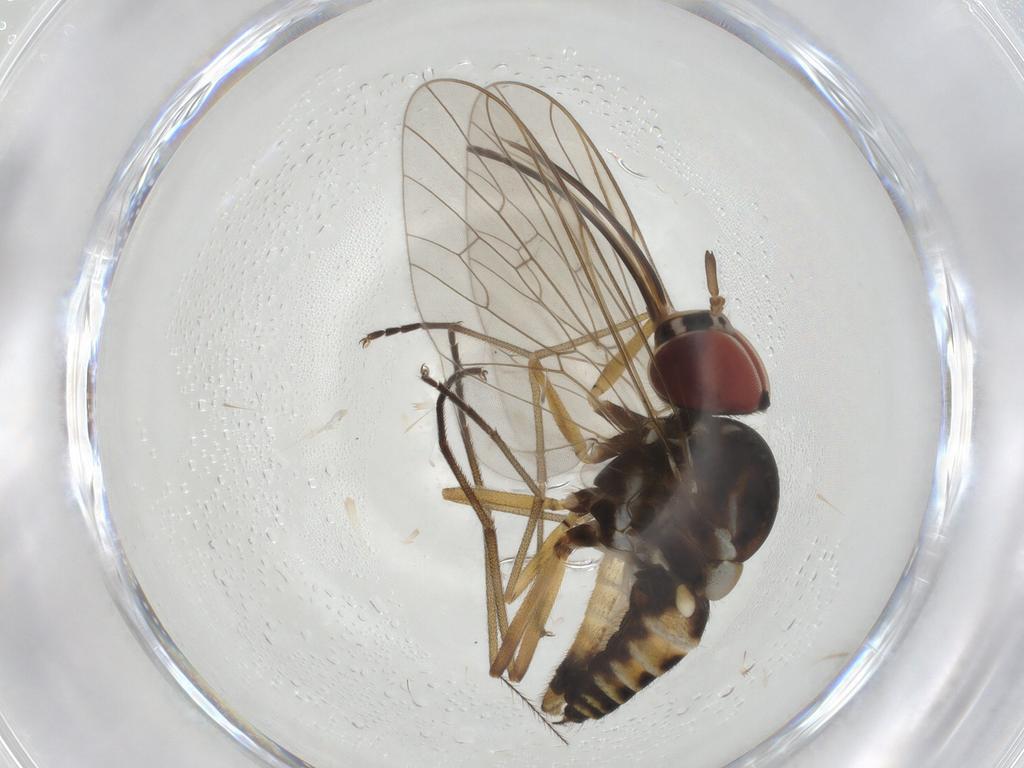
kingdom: Animalia
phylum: Arthropoda
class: Insecta
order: Diptera
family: Bombyliidae
